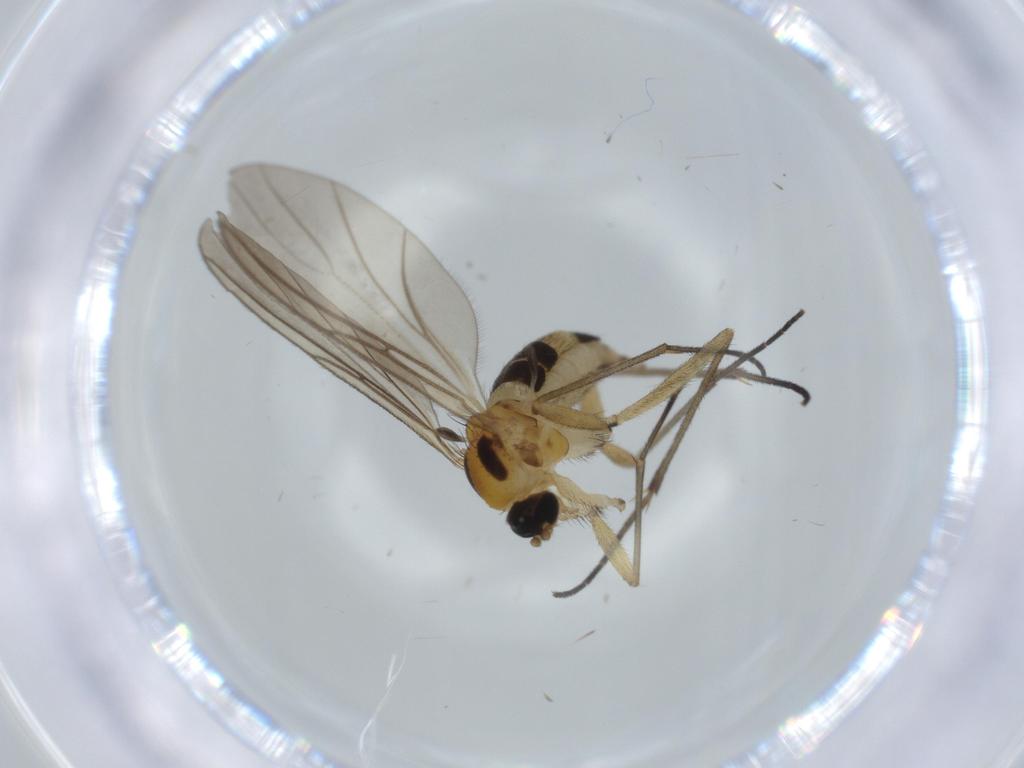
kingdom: Animalia
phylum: Arthropoda
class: Insecta
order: Diptera
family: Sciaridae
